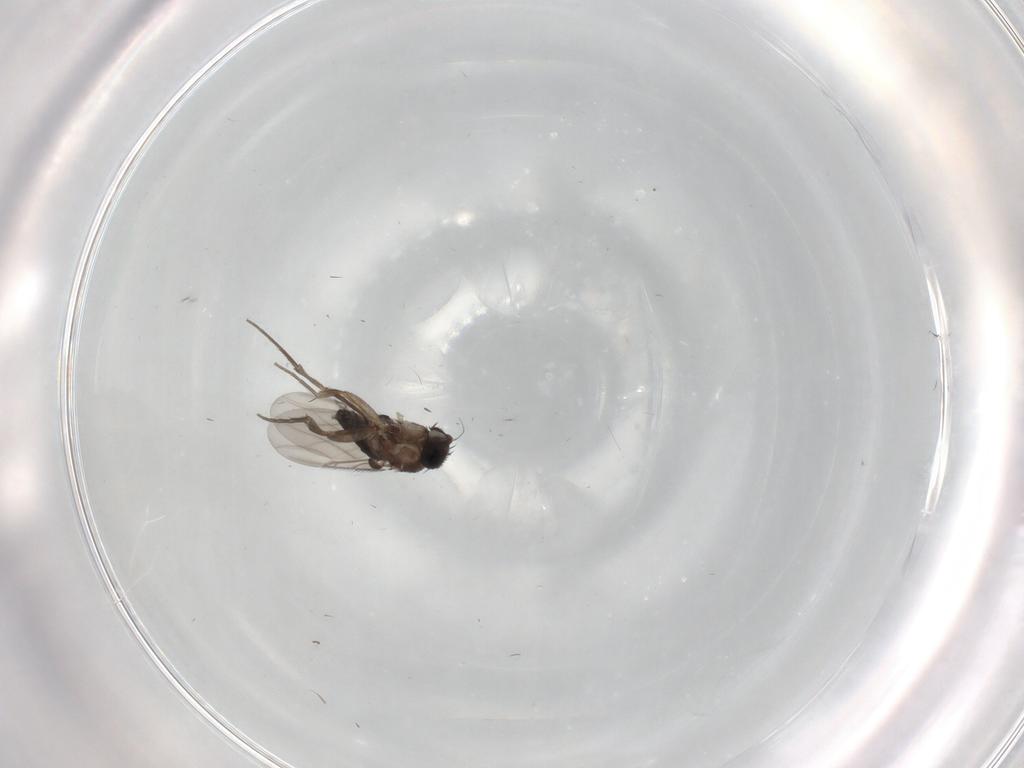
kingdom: Animalia
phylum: Arthropoda
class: Insecta
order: Diptera
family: Phoridae
